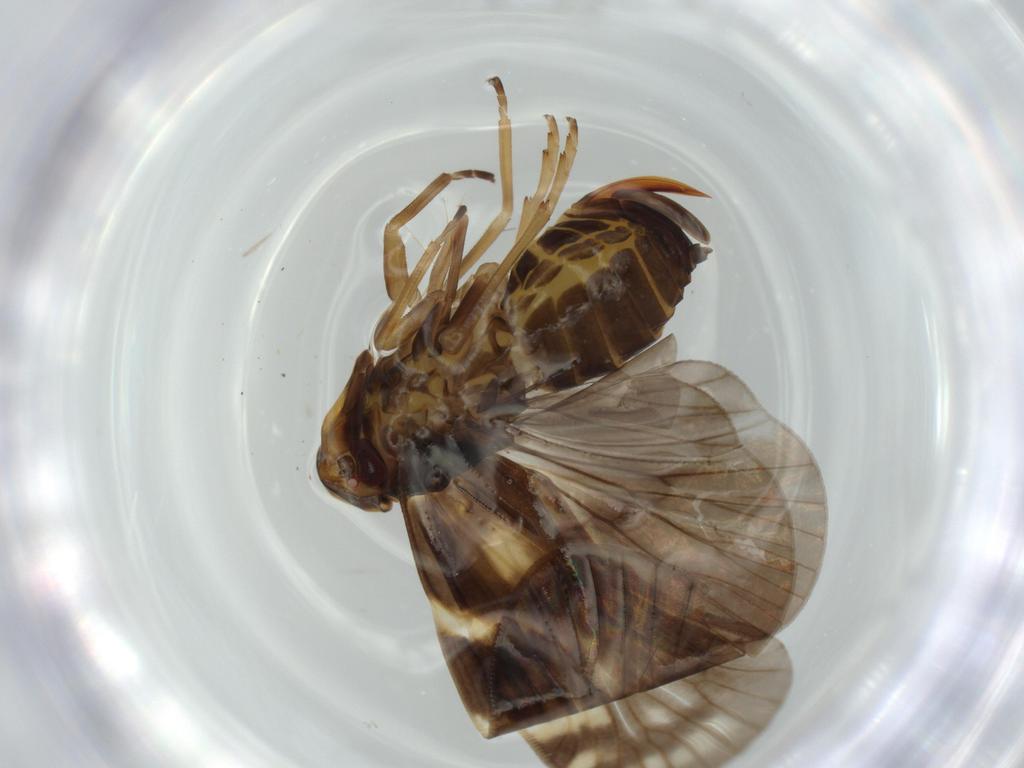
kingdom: Animalia
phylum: Arthropoda
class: Insecta
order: Hemiptera
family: Cixiidae
